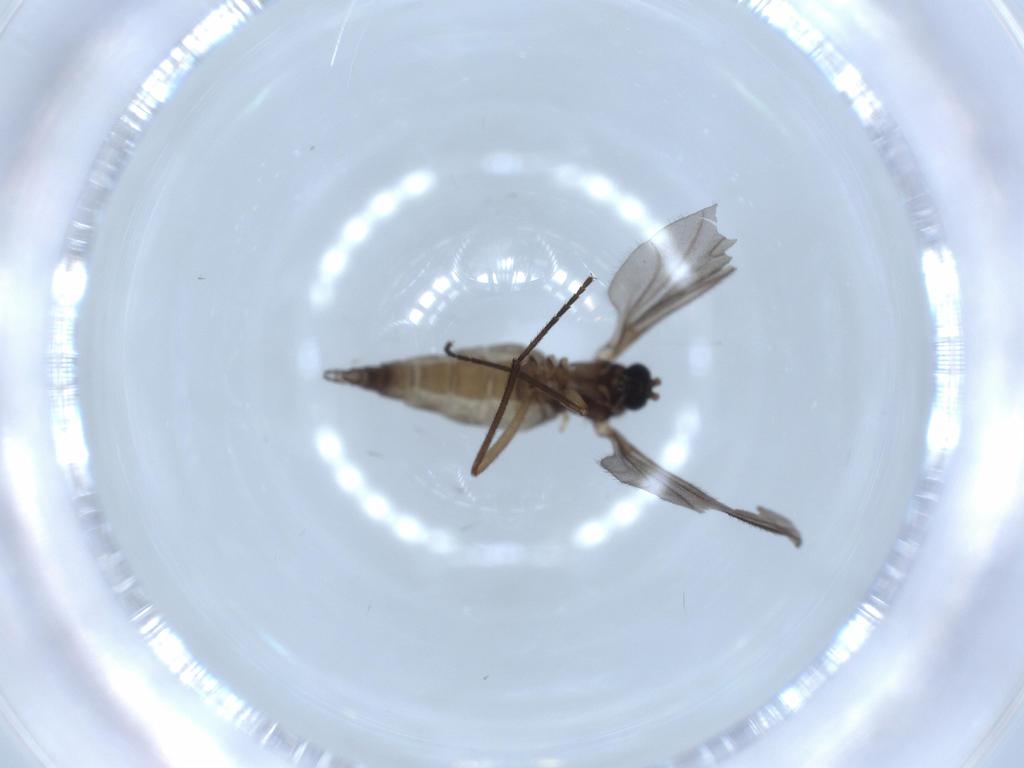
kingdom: Animalia
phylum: Arthropoda
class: Insecta
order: Diptera
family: Sciaridae
